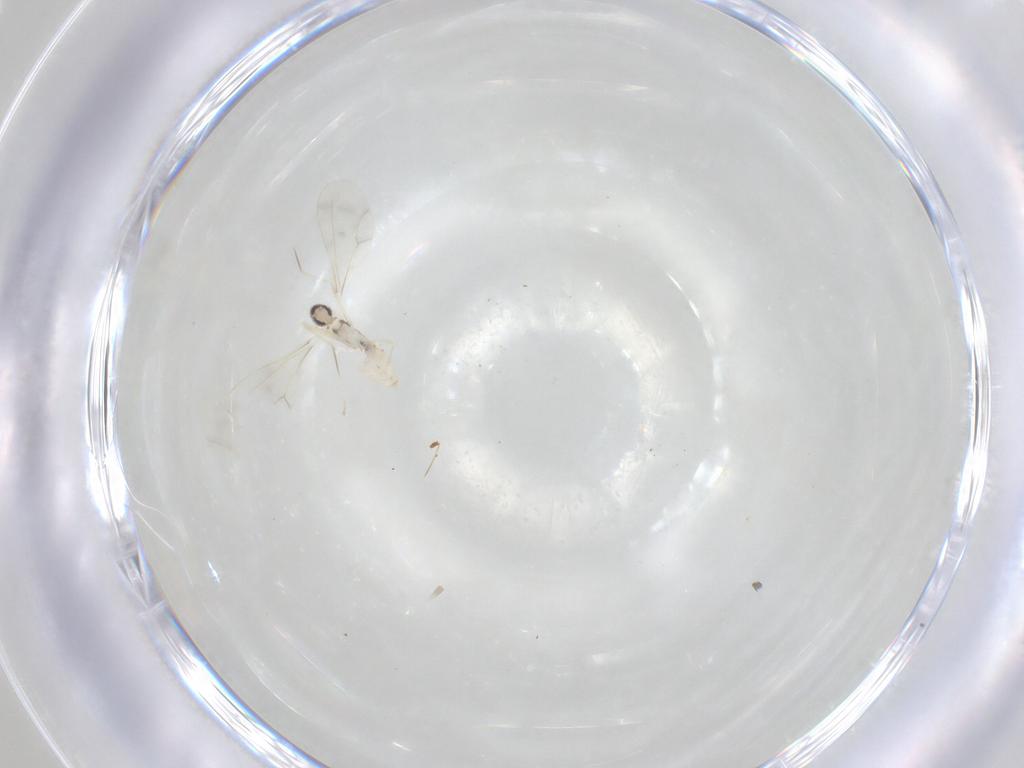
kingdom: Animalia
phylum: Arthropoda
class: Insecta
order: Diptera
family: Cecidomyiidae
